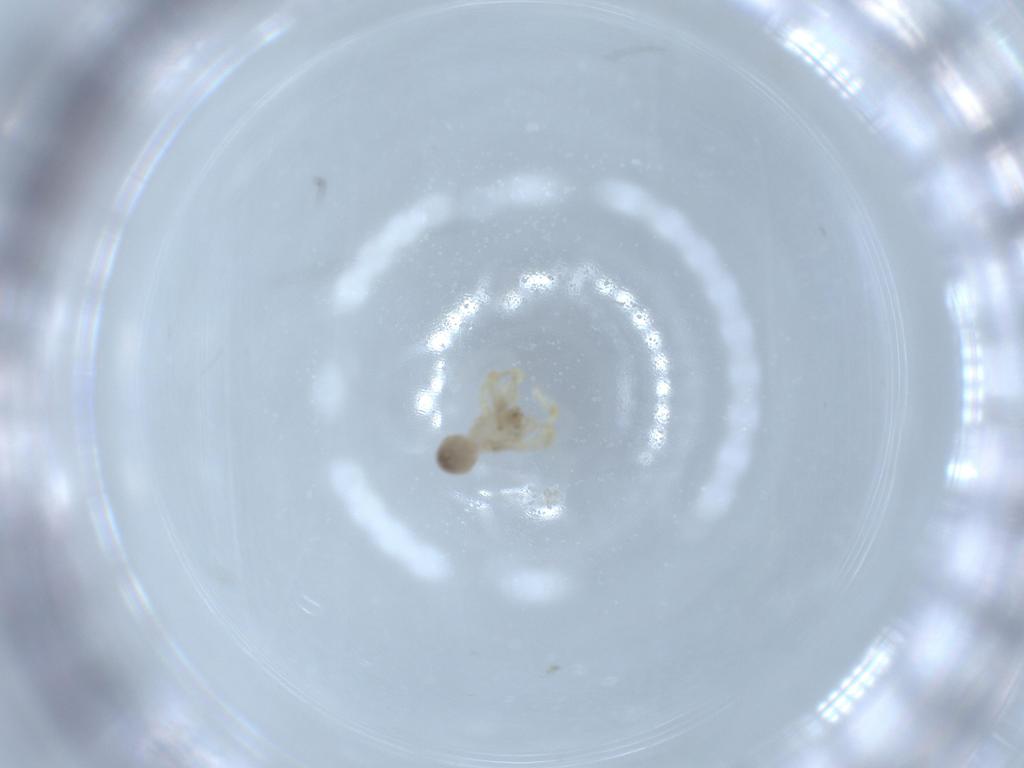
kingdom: Animalia
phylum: Arthropoda
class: Arachnida
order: Araneae
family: Oonopidae
